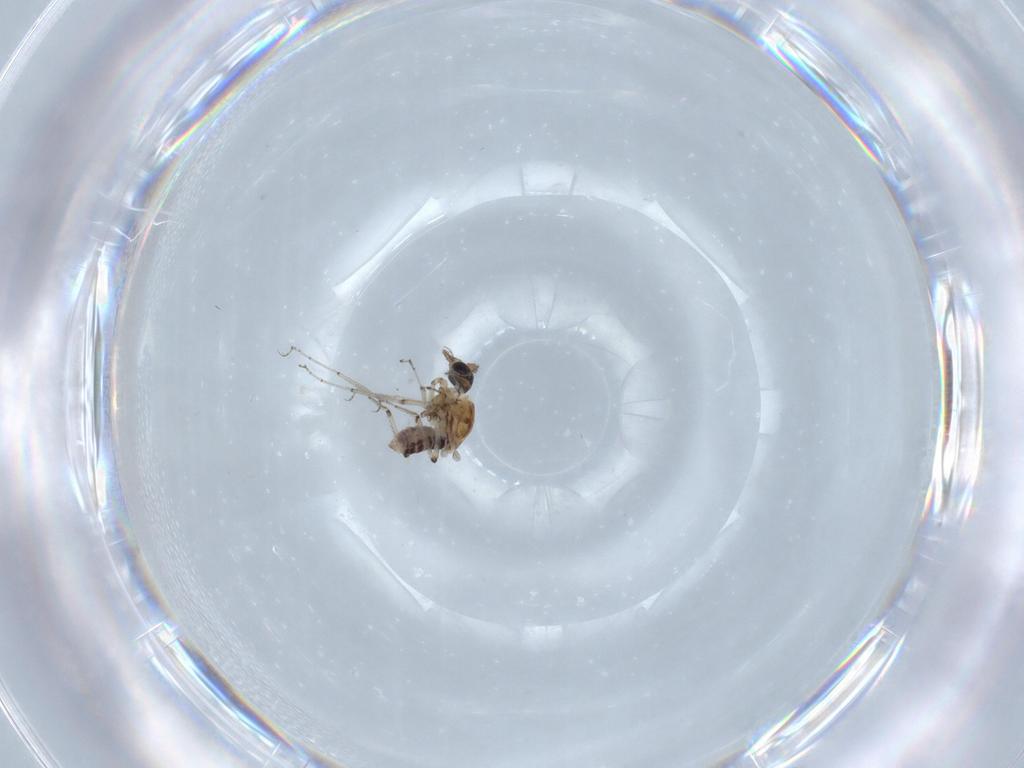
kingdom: Animalia
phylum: Arthropoda
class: Insecta
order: Diptera
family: Ceratopogonidae
